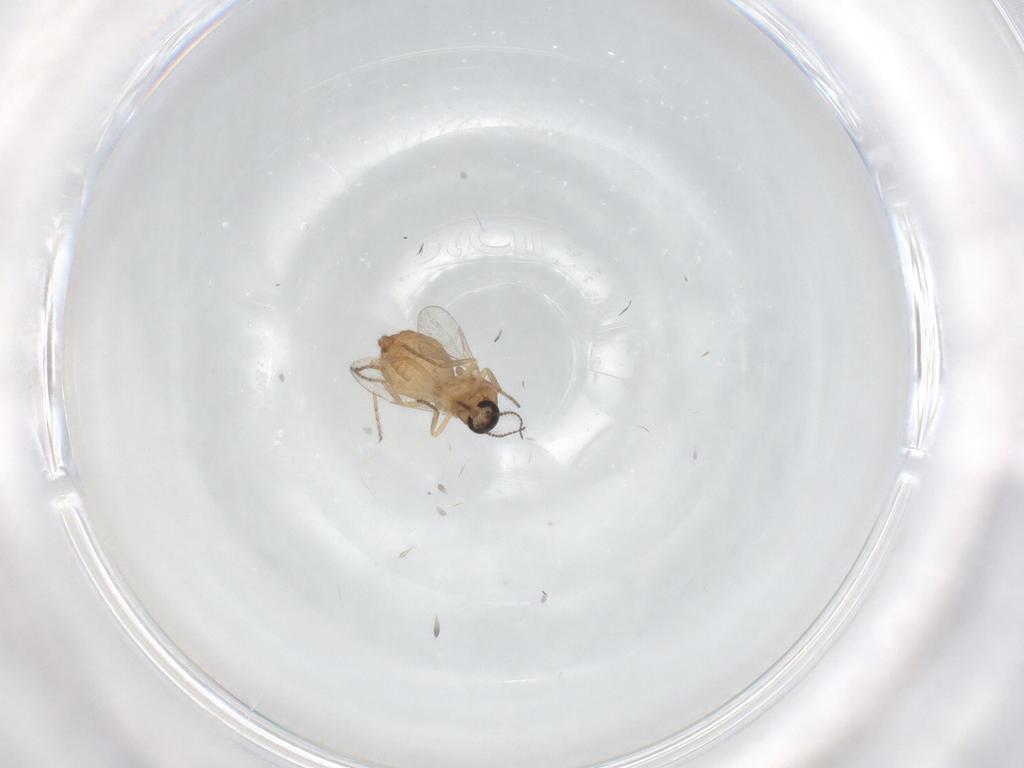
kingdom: Animalia
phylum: Arthropoda
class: Insecta
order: Diptera
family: Ceratopogonidae
